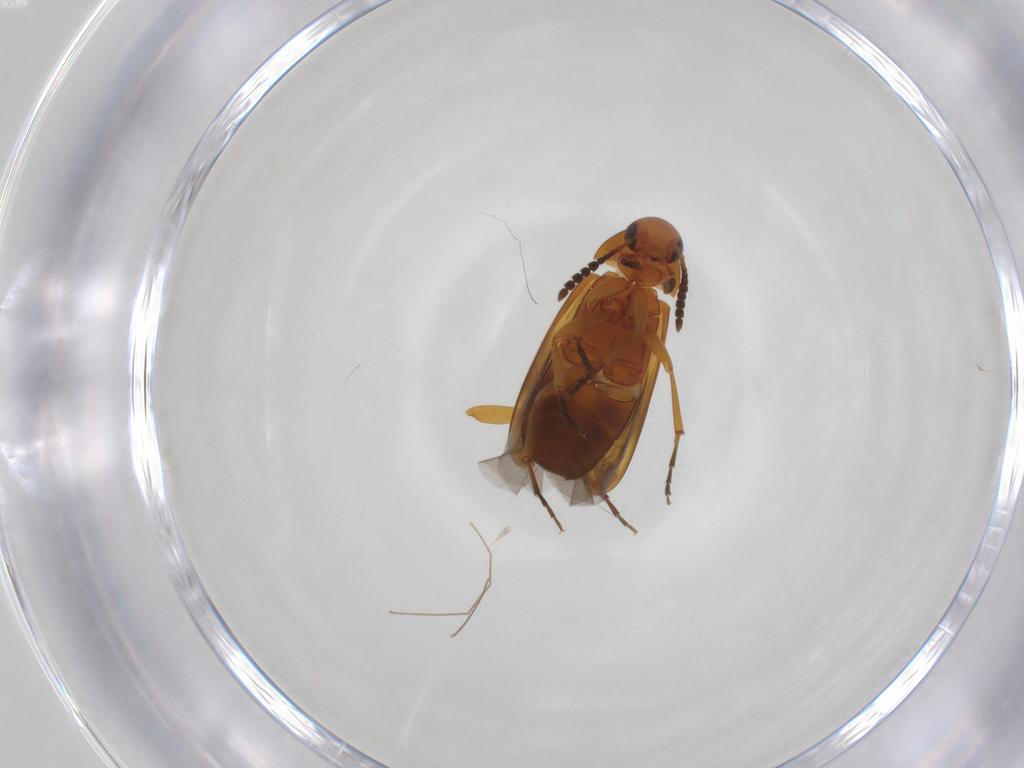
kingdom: Animalia
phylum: Arthropoda
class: Insecta
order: Coleoptera
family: Scraptiidae
